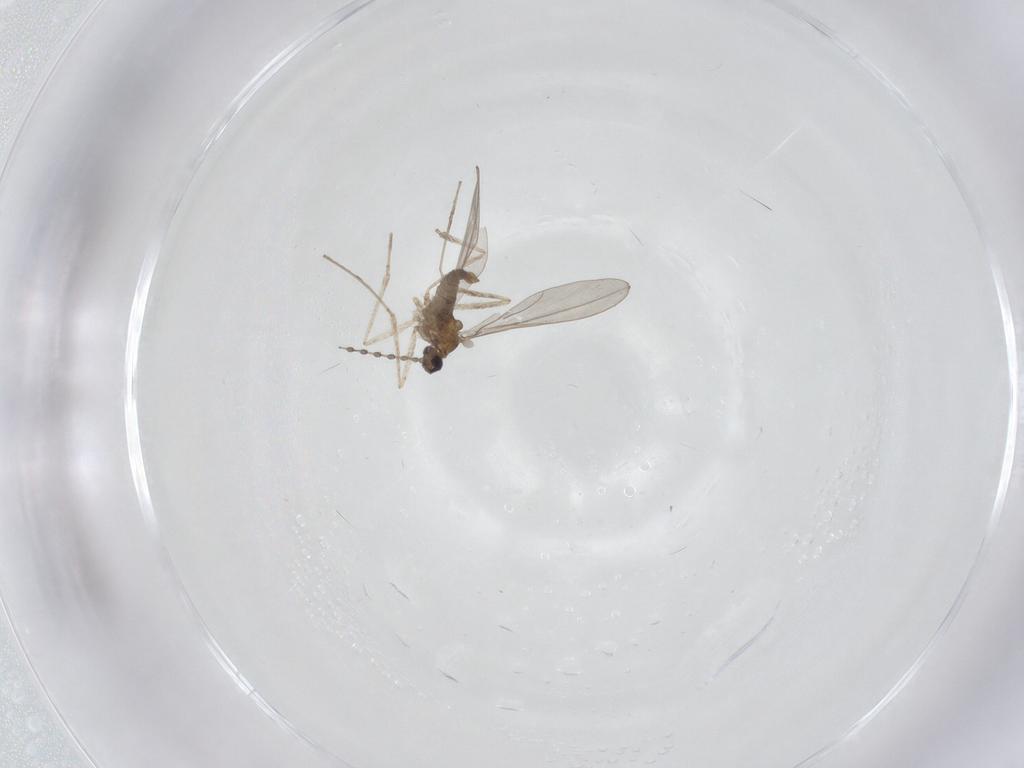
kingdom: Animalia
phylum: Arthropoda
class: Insecta
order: Diptera
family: Cecidomyiidae
